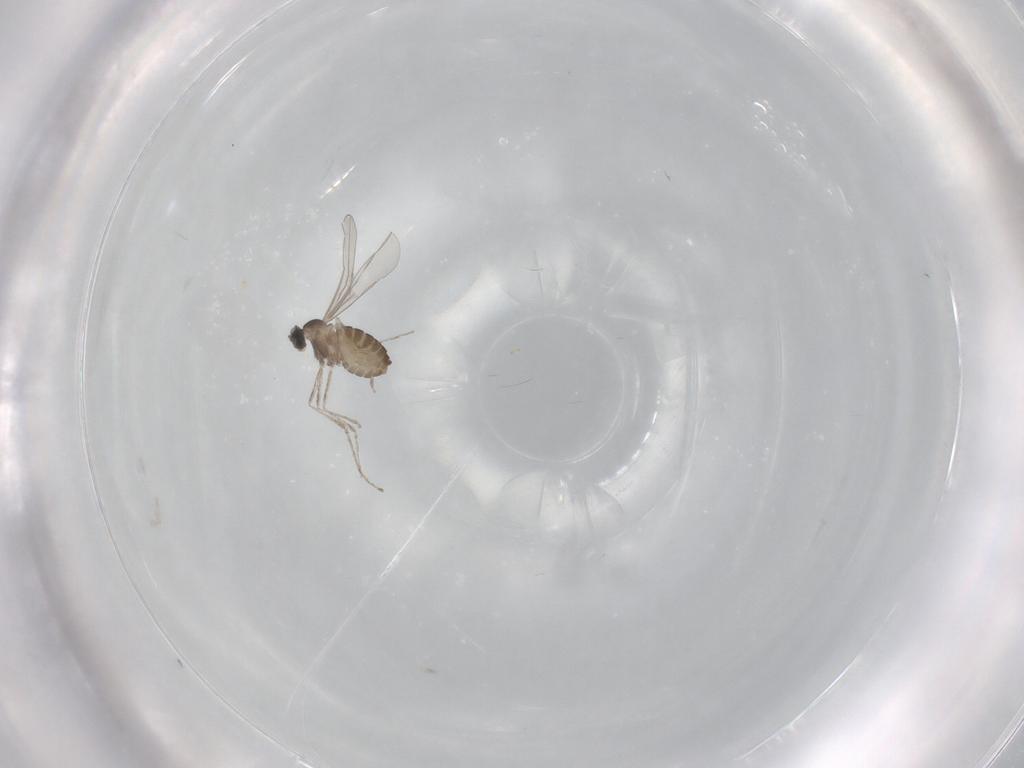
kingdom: Animalia
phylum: Arthropoda
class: Insecta
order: Diptera
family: Cecidomyiidae
